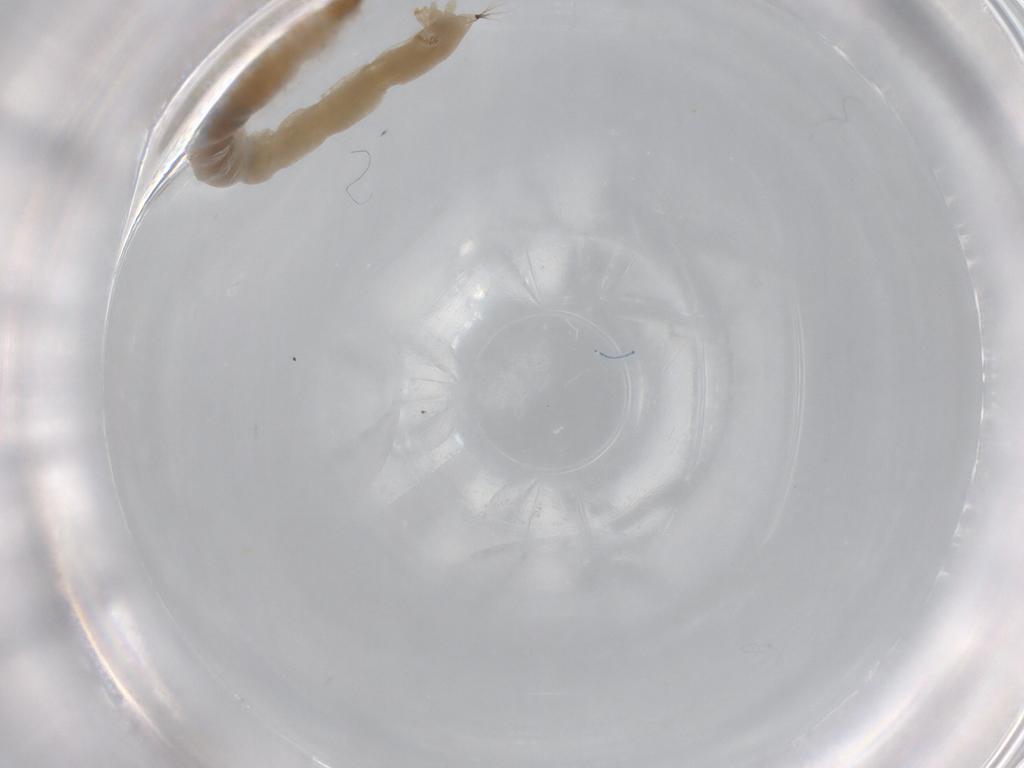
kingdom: Animalia
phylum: Arthropoda
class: Insecta
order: Diptera
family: Chironomidae
